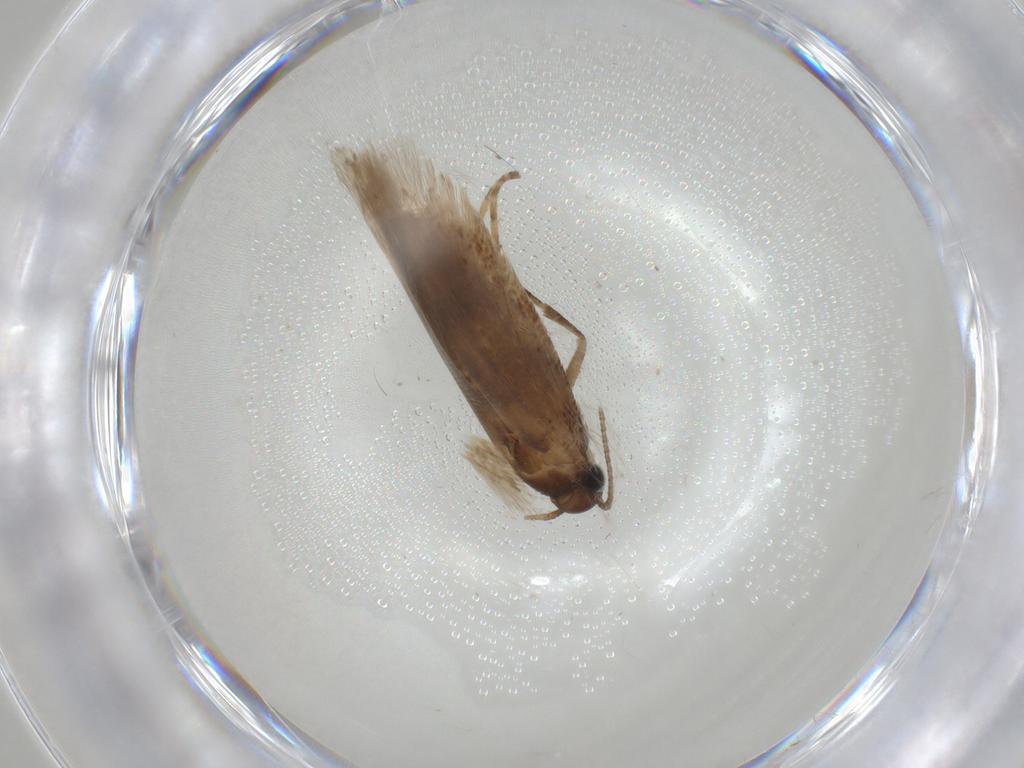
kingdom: Animalia
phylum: Arthropoda
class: Insecta
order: Lepidoptera
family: Gelechiidae
